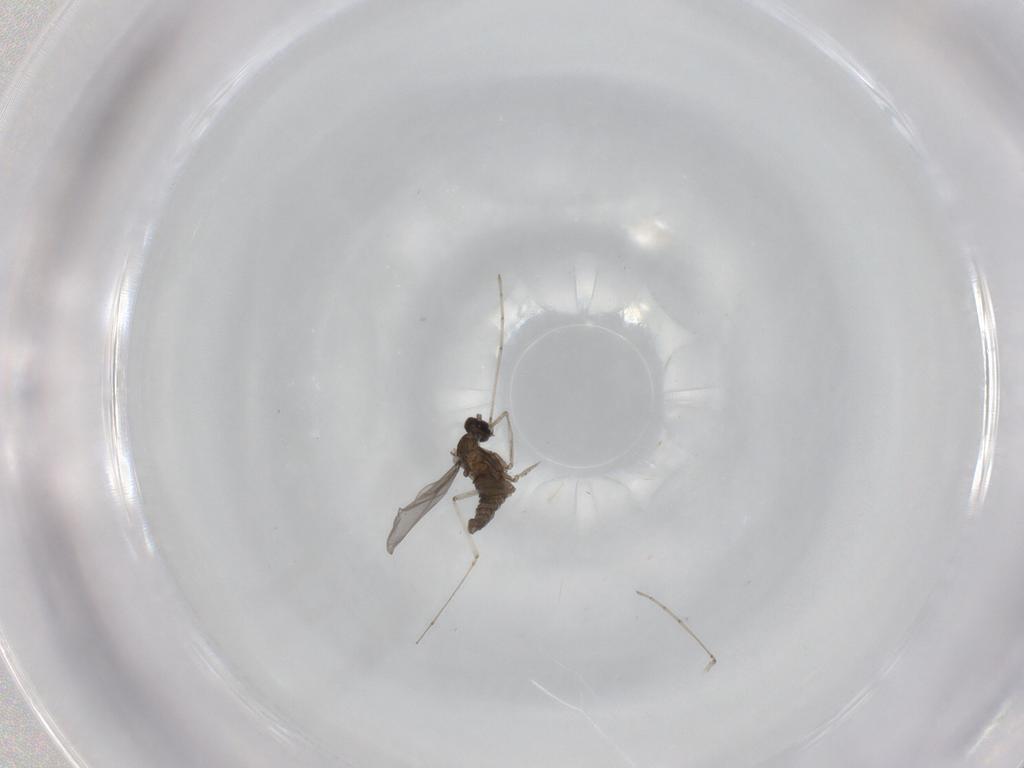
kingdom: Animalia
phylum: Arthropoda
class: Insecta
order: Diptera
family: Cecidomyiidae
